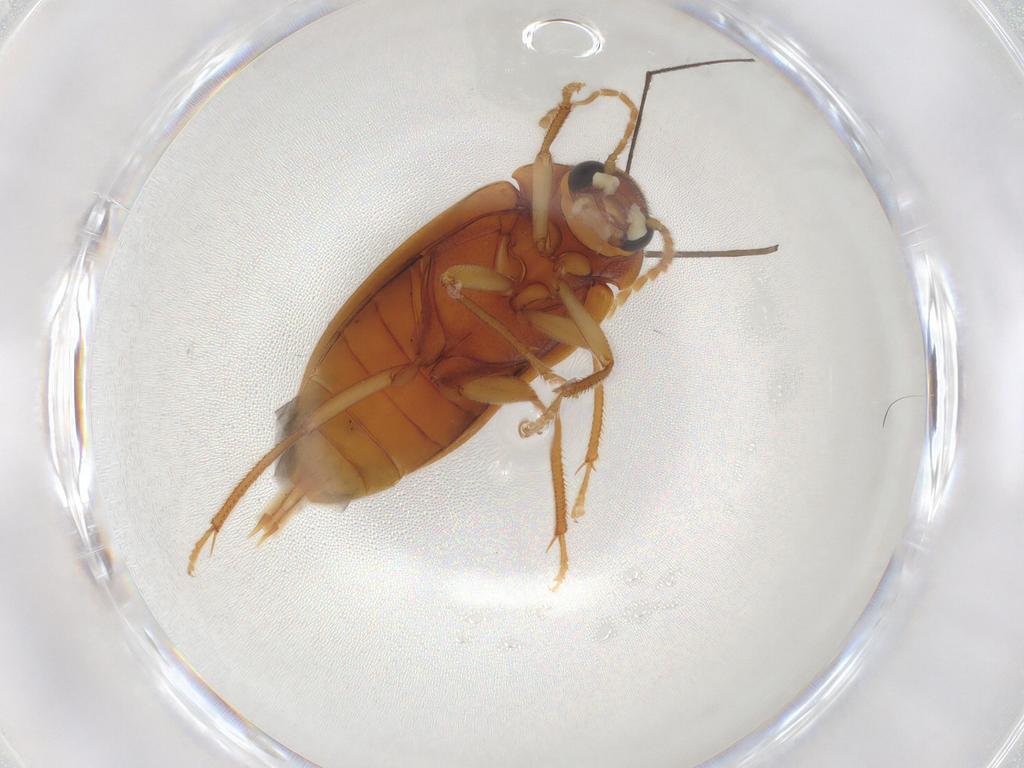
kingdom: Animalia
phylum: Arthropoda
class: Insecta
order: Coleoptera
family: Ptilodactylidae
